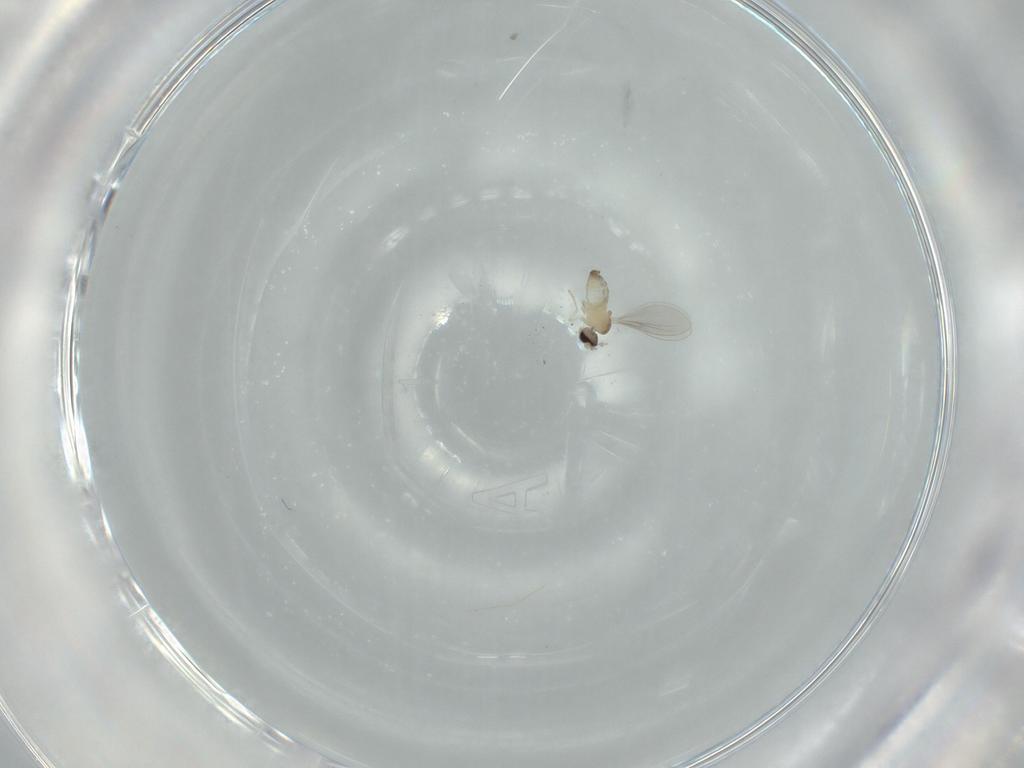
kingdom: Animalia
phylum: Arthropoda
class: Insecta
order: Diptera
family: Cecidomyiidae
